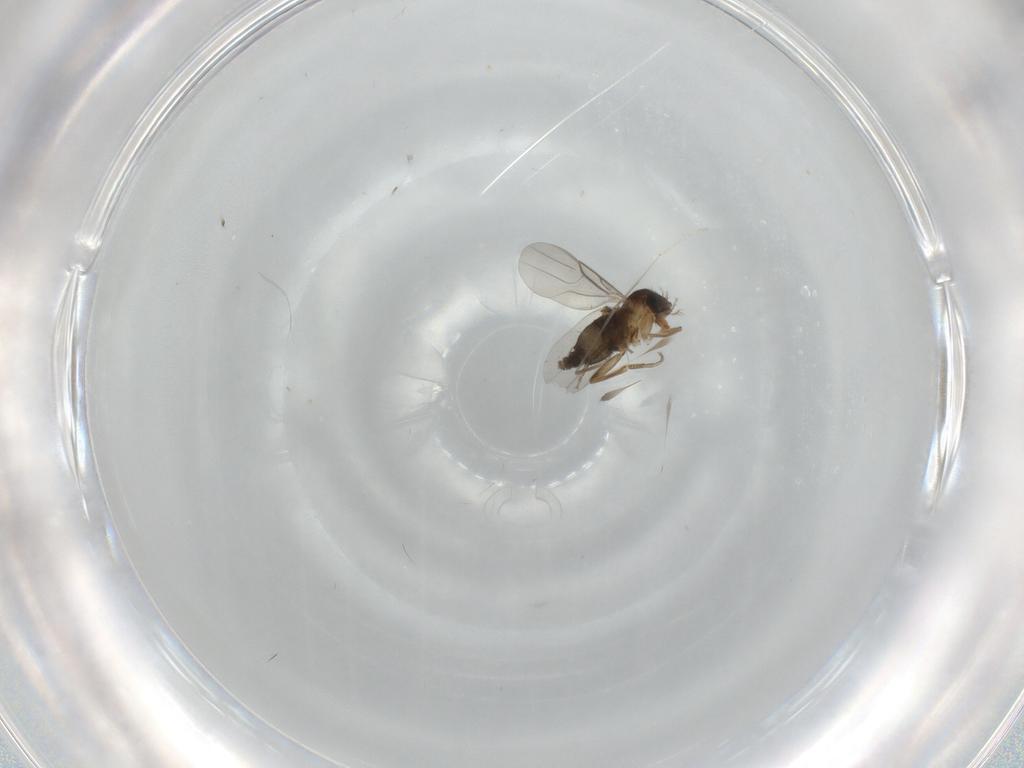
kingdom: Animalia
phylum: Arthropoda
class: Insecta
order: Diptera
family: Phoridae
